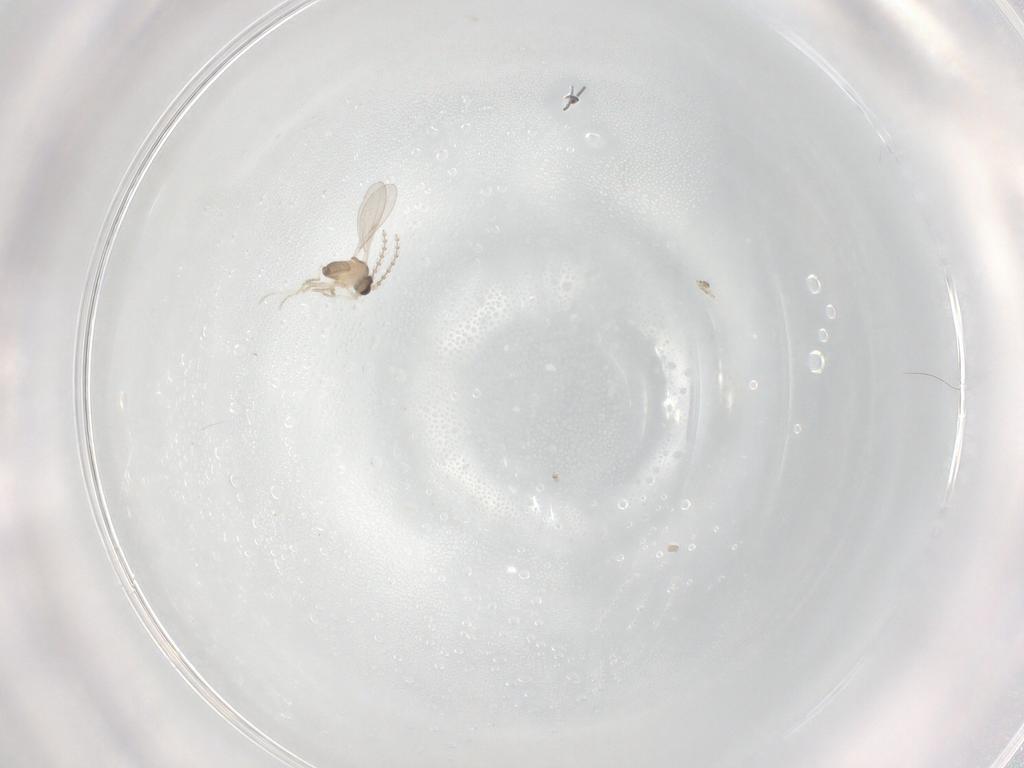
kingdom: Animalia
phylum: Arthropoda
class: Insecta
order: Diptera
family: Cecidomyiidae
